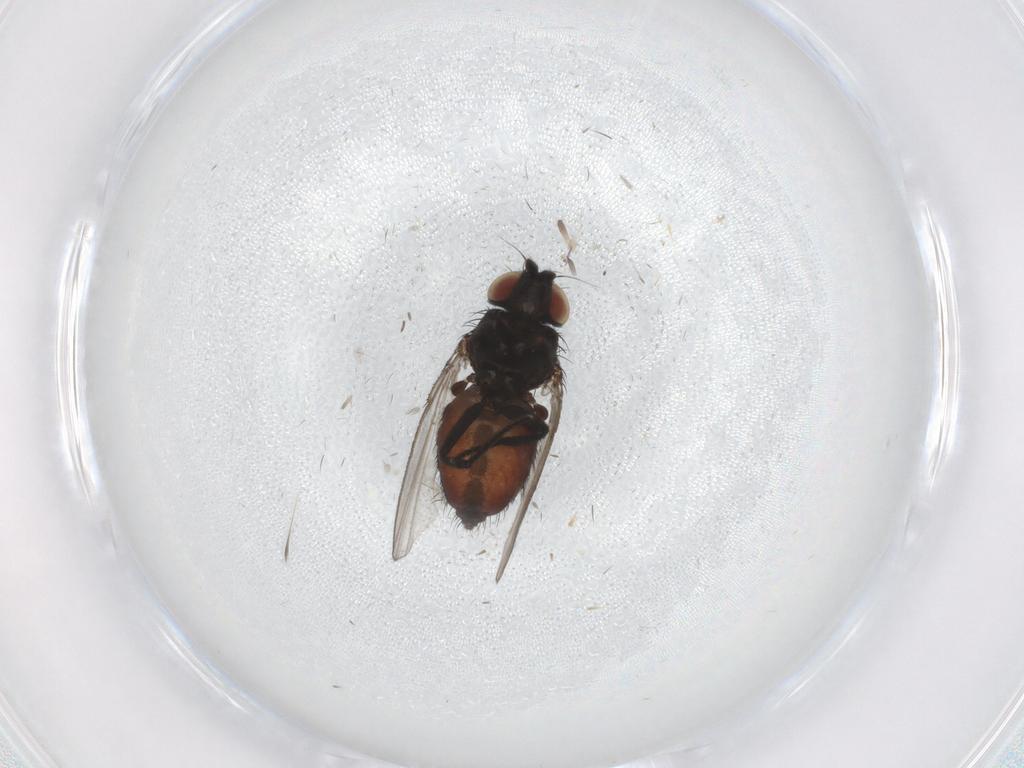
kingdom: Animalia
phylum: Arthropoda
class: Insecta
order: Diptera
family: Milichiidae
